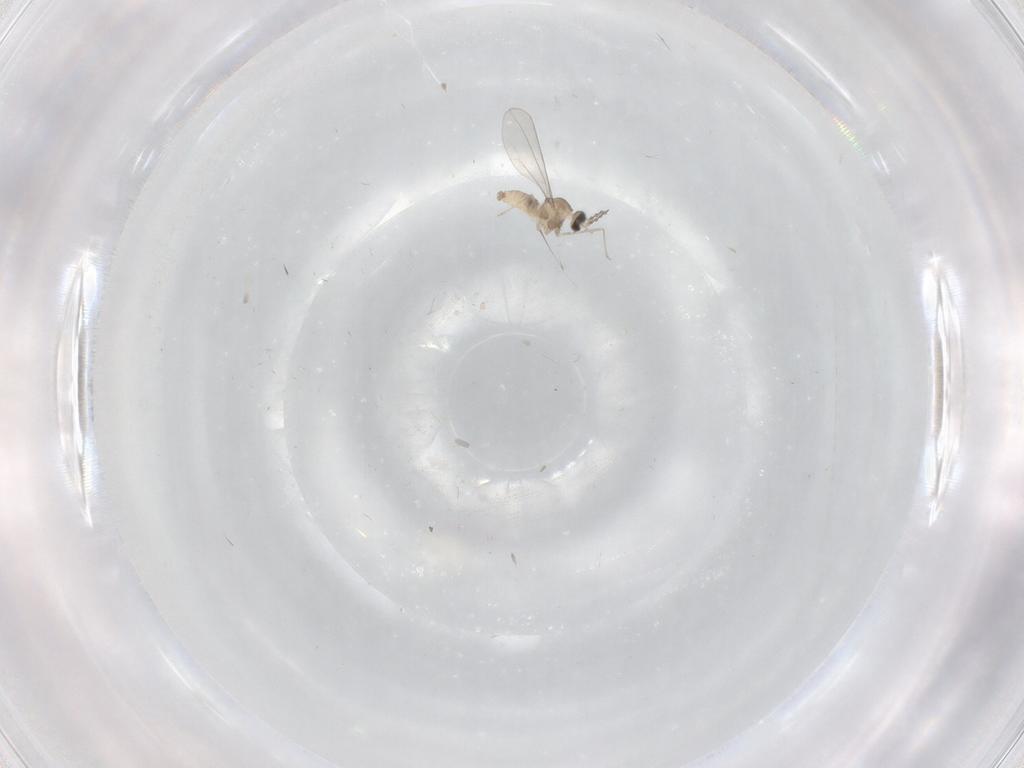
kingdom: Animalia
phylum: Arthropoda
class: Insecta
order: Diptera
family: Cecidomyiidae
